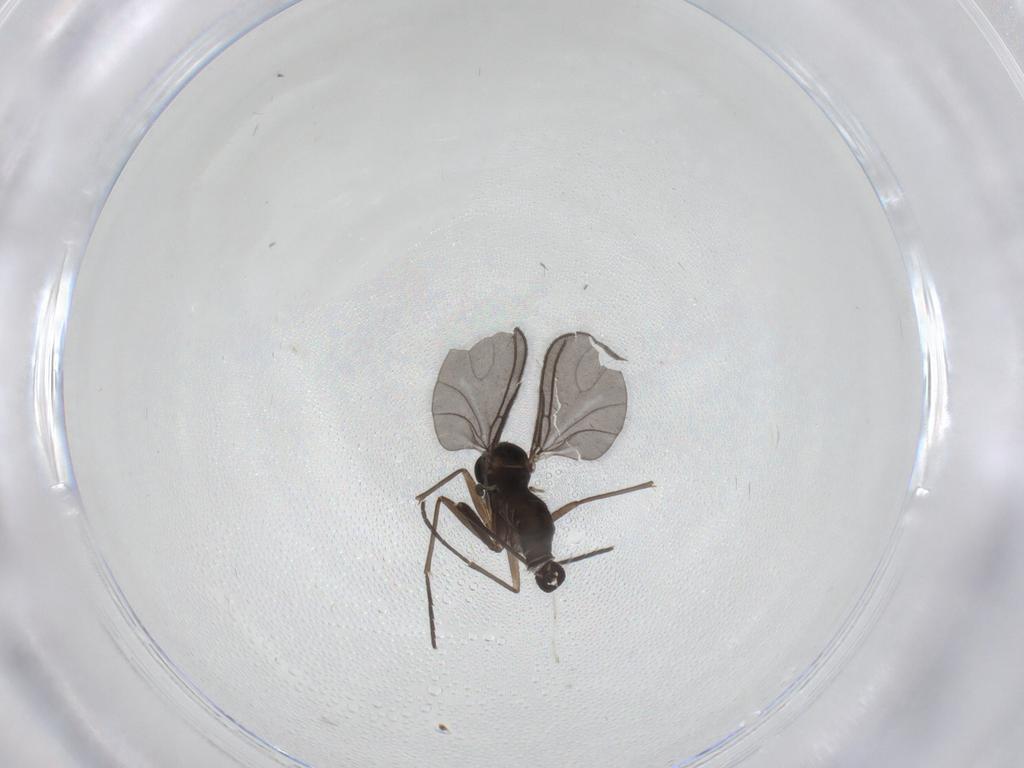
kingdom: Animalia
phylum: Arthropoda
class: Insecta
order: Diptera
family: Sciaridae
